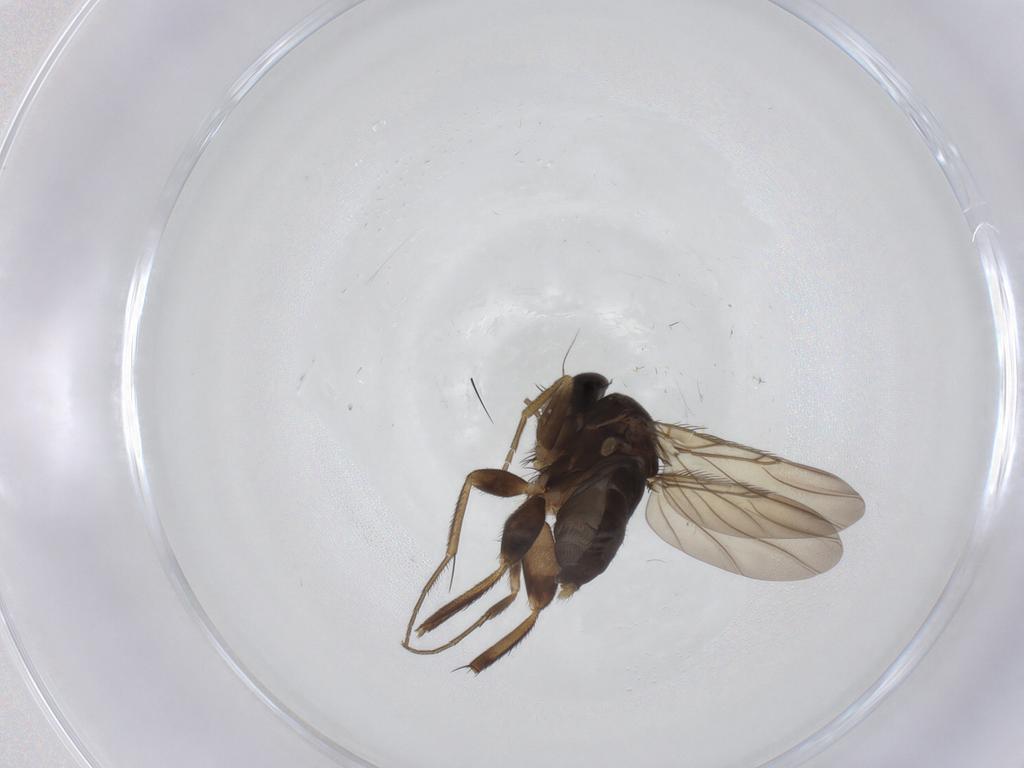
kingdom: Animalia
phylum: Arthropoda
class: Insecta
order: Diptera
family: Phoridae
